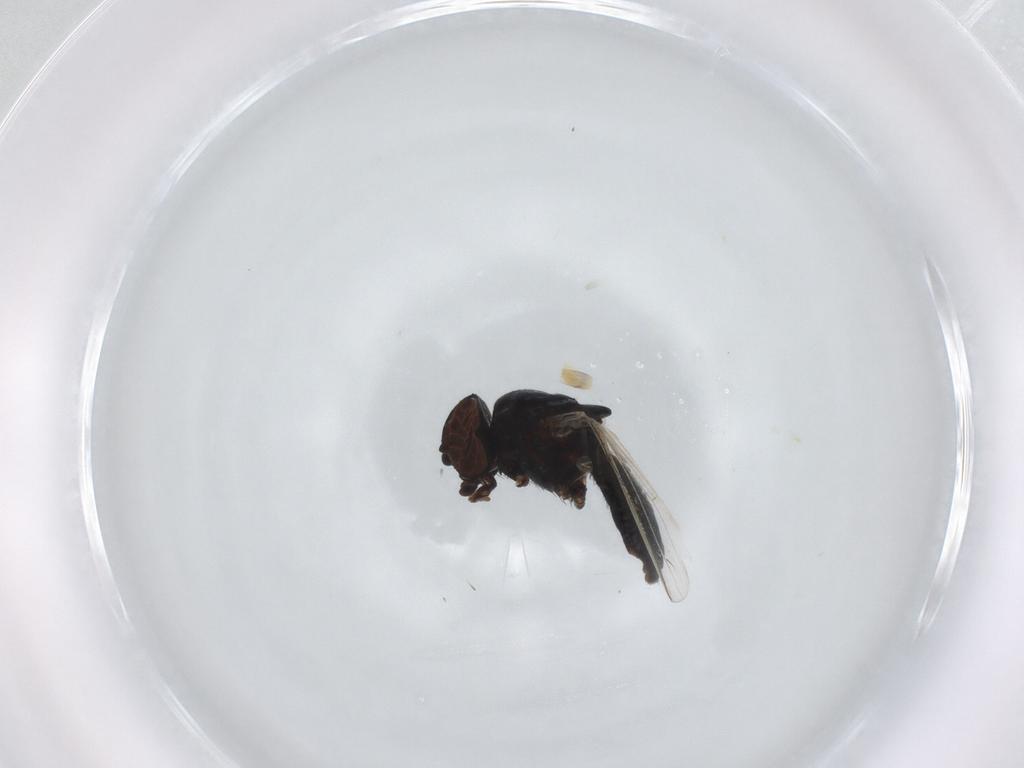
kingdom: Animalia
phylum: Arthropoda
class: Insecta
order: Diptera
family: Milichiidae
